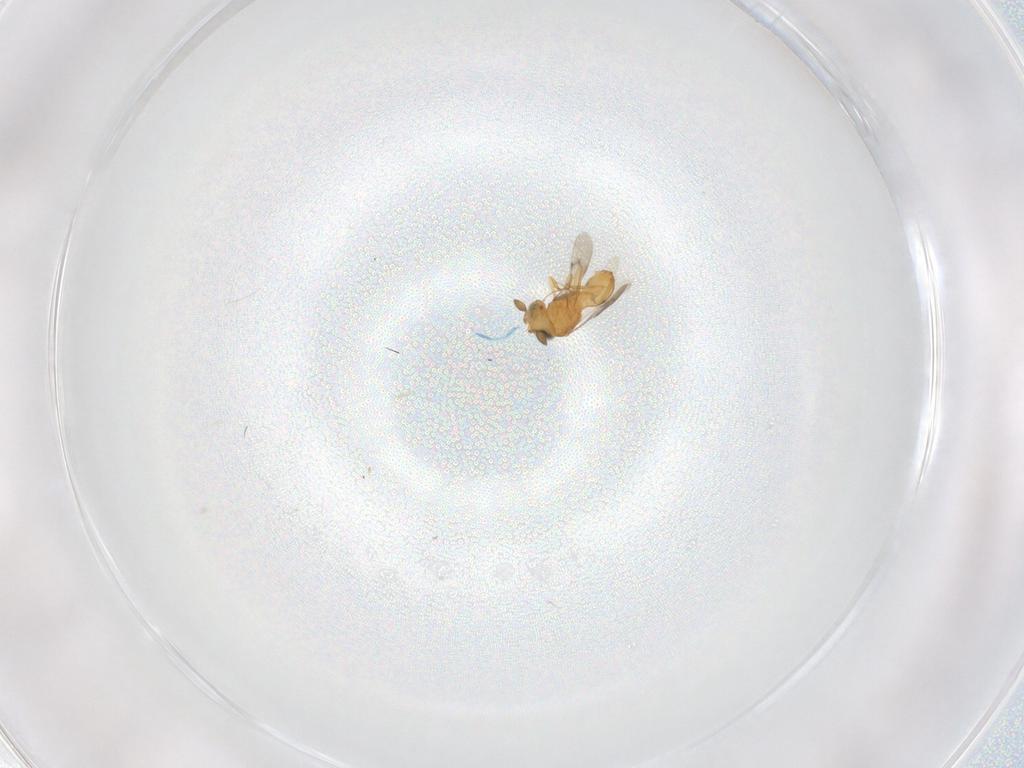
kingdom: Animalia
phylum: Arthropoda
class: Insecta
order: Hymenoptera
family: Scelionidae
